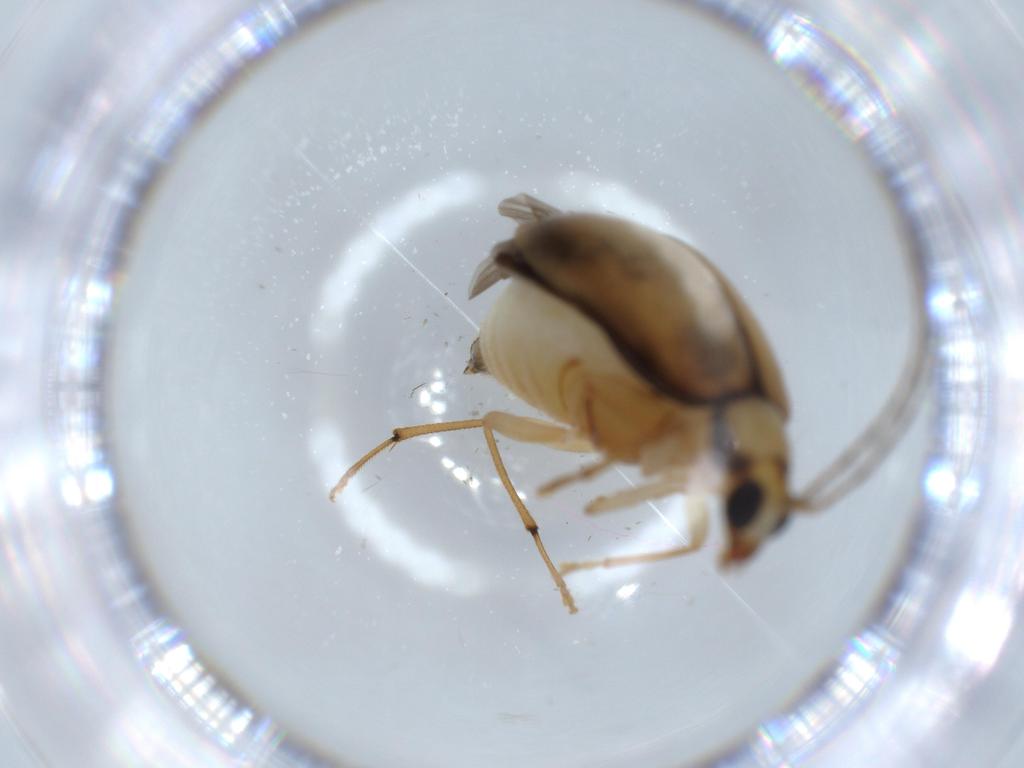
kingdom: Animalia
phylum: Arthropoda
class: Insecta
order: Coleoptera
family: Chrysomelidae
